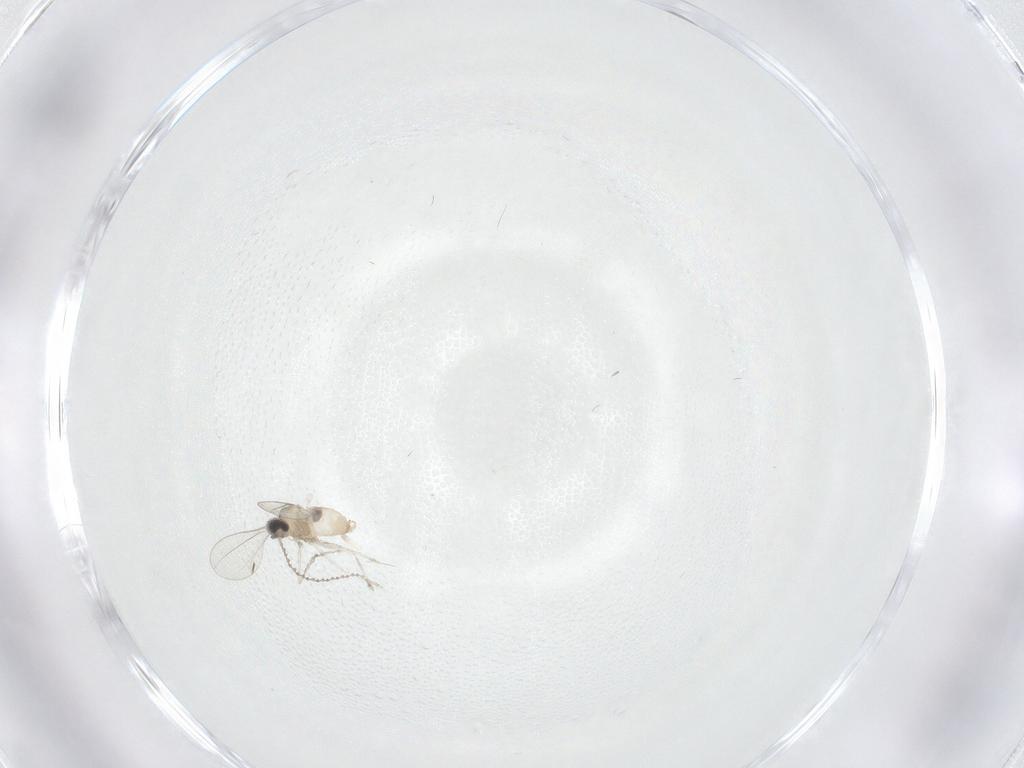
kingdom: Animalia
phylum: Arthropoda
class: Insecta
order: Diptera
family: Cecidomyiidae
